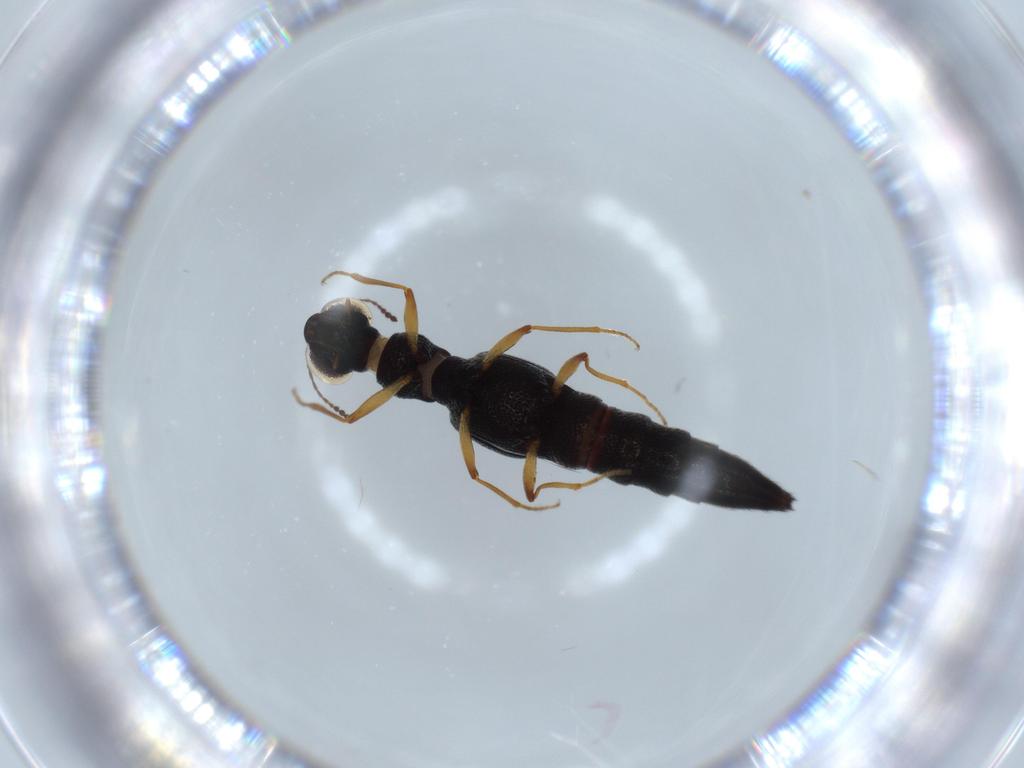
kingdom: Animalia
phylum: Arthropoda
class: Insecta
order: Coleoptera
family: Staphylinidae
